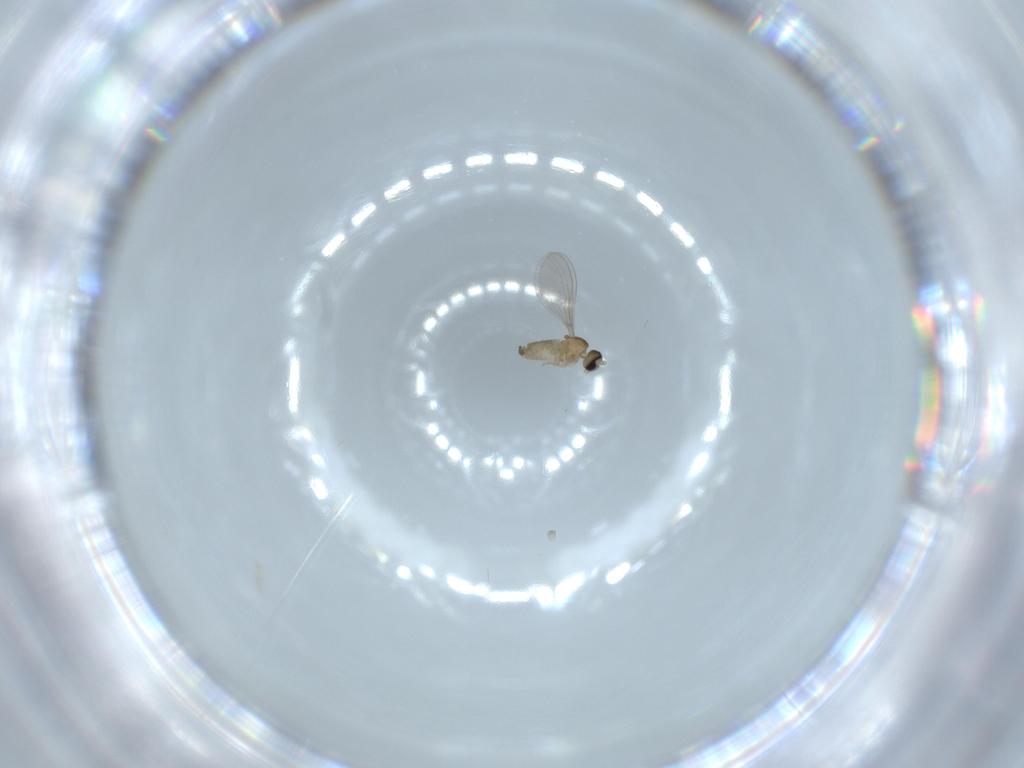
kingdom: Animalia
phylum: Arthropoda
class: Insecta
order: Diptera
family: Cecidomyiidae
